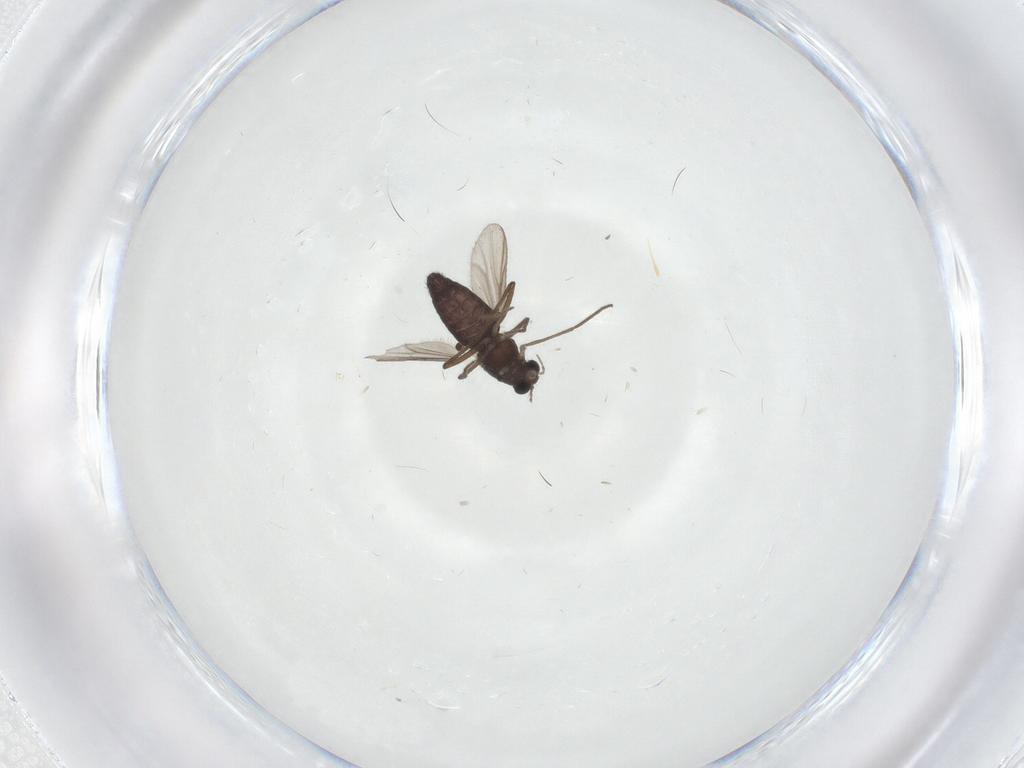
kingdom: Animalia
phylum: Arthropoda
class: Insecta
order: Diptera
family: Chironomidae
